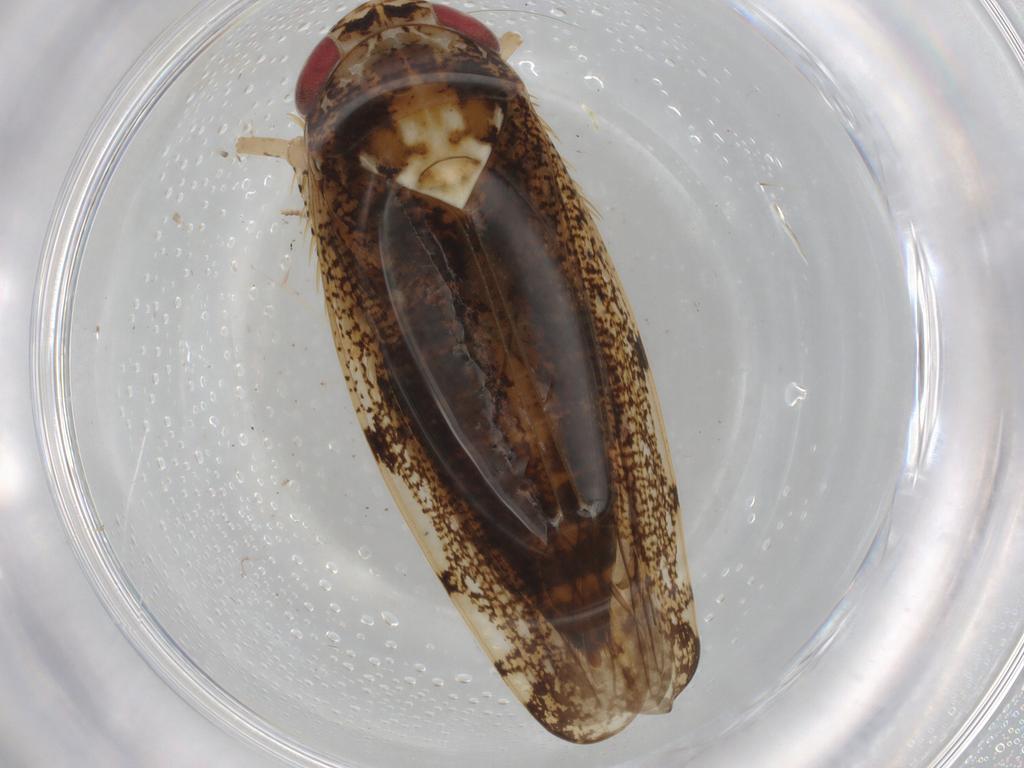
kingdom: Animalia
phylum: Arthropoda
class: Insecta
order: Hemiptera
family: Cicadellidae
